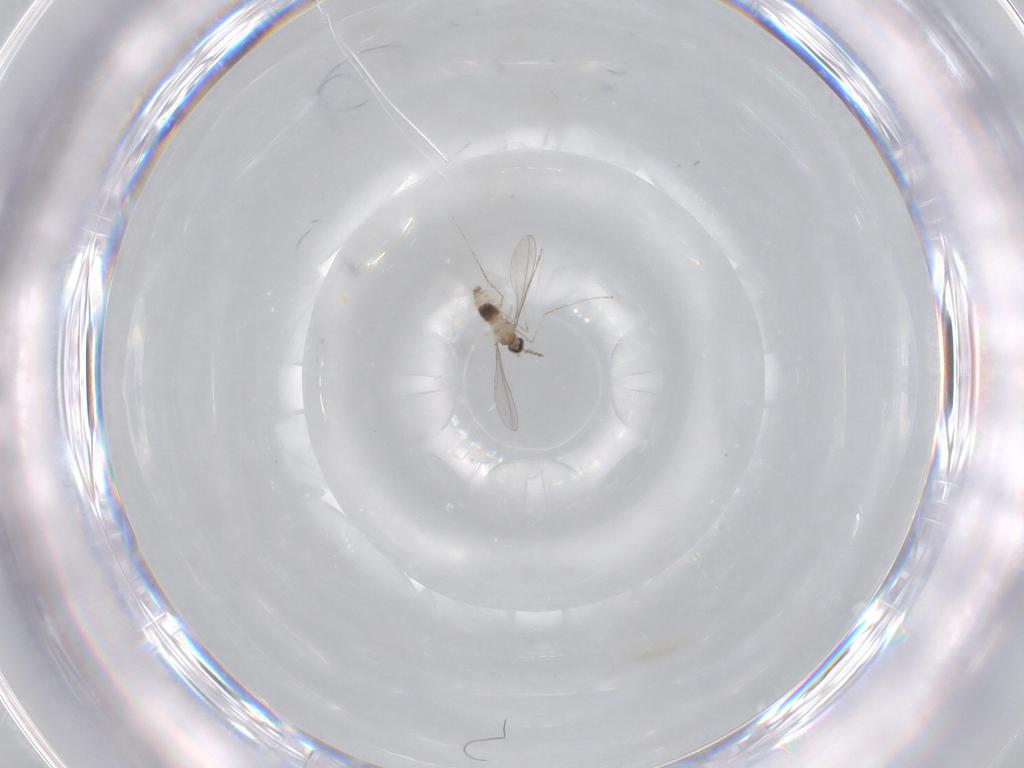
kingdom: Animalia
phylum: Arthropoda
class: Insecta
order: Diptera
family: Cecidomyiidae
